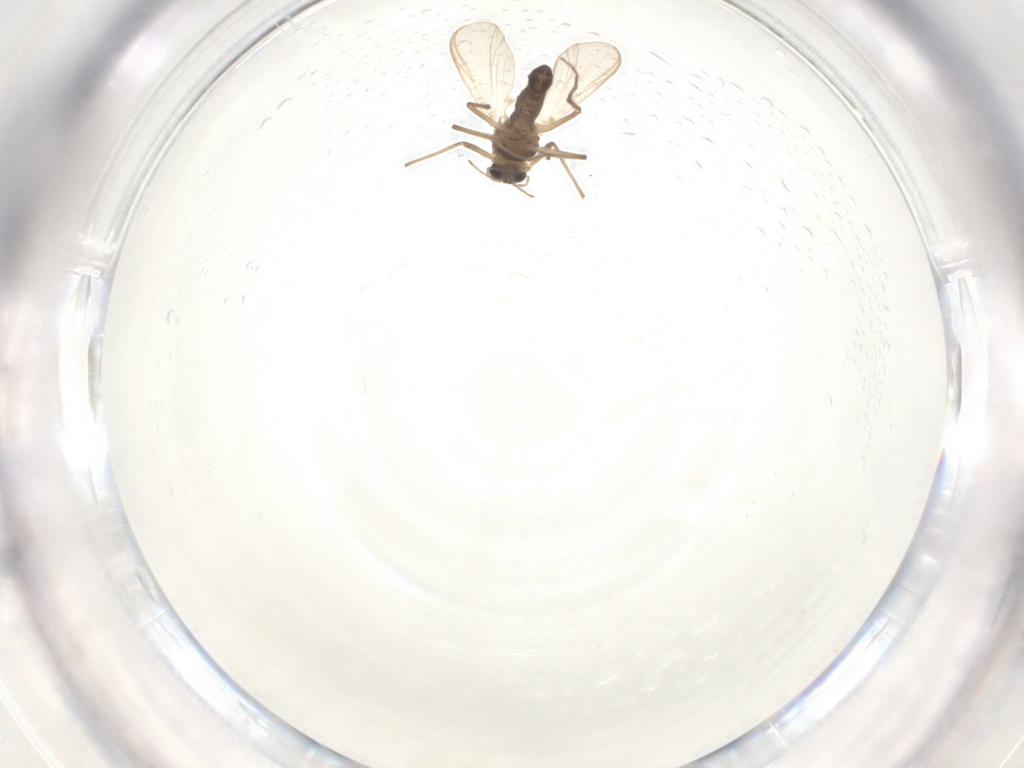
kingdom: Animalia
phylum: Arthropoda
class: Insecta
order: Diptera
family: Chironomidae
